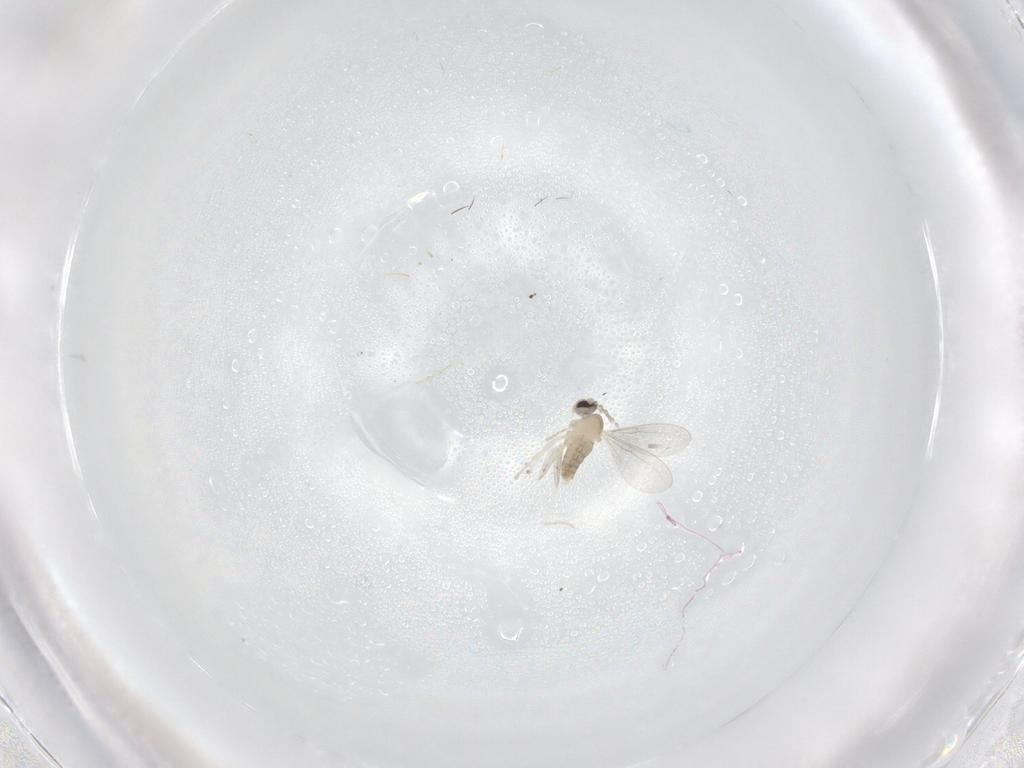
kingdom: Animalia
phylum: Arthropoda
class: Insecta
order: Diptera
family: Cecidomyiidae
